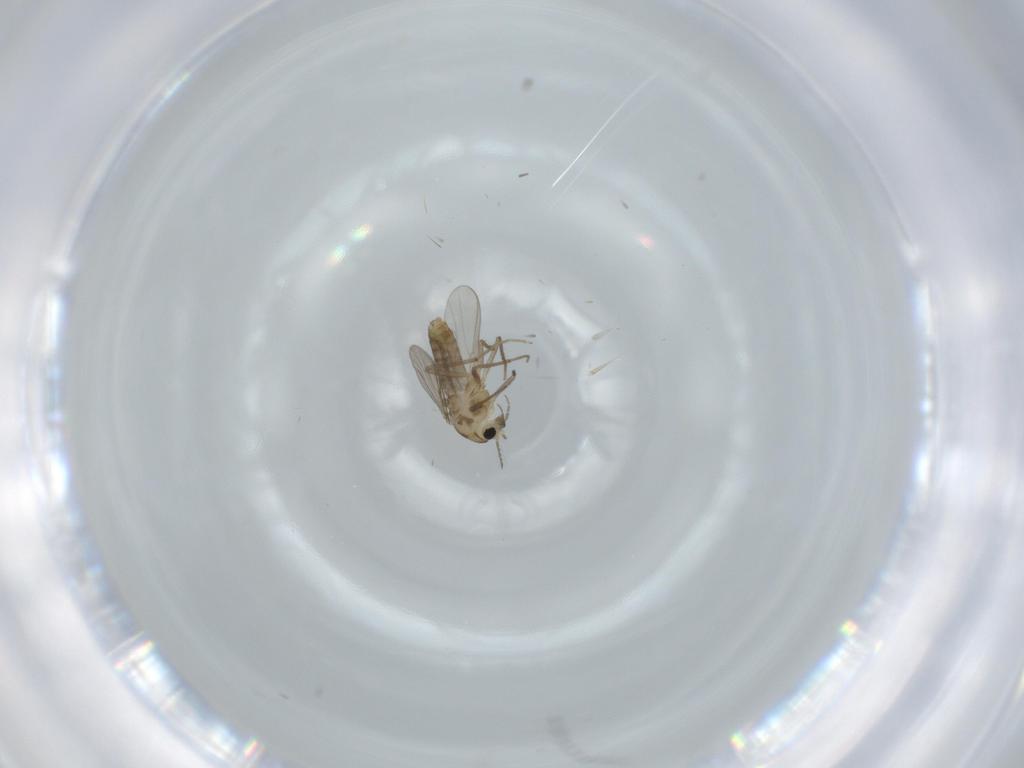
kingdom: Animalia
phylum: Arthropoda
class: Insecta
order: Diptera
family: Chironomidae
